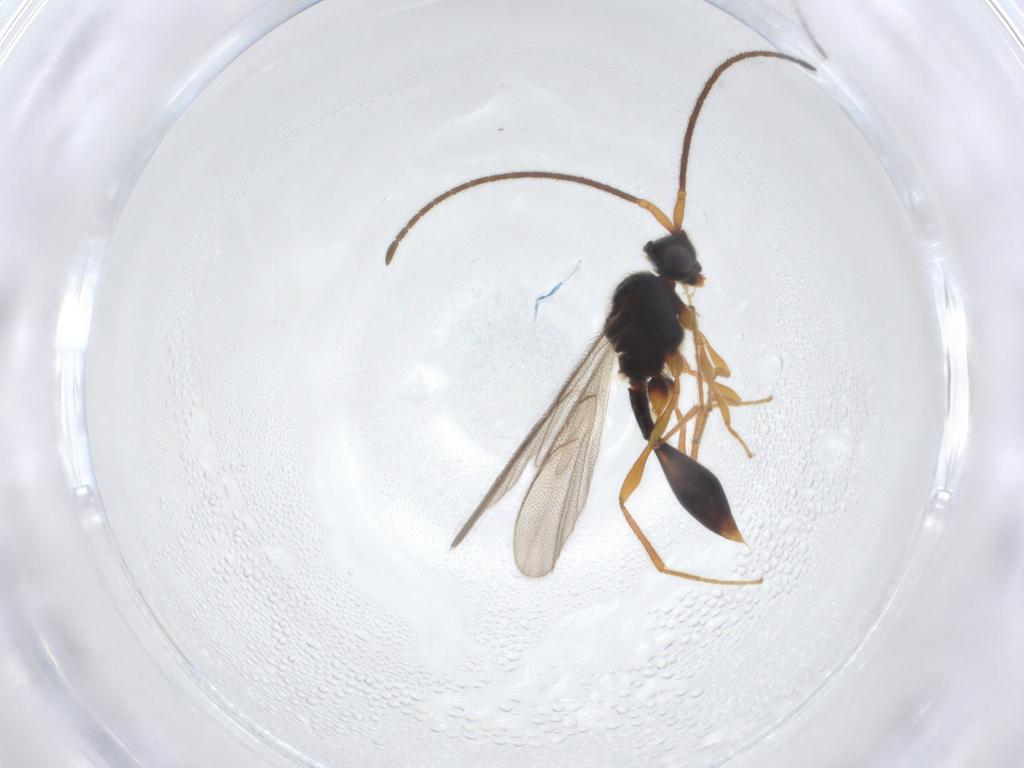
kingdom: Animalia
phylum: Arthropoda
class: Insecta
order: Hymenoptera
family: Diapriidae
